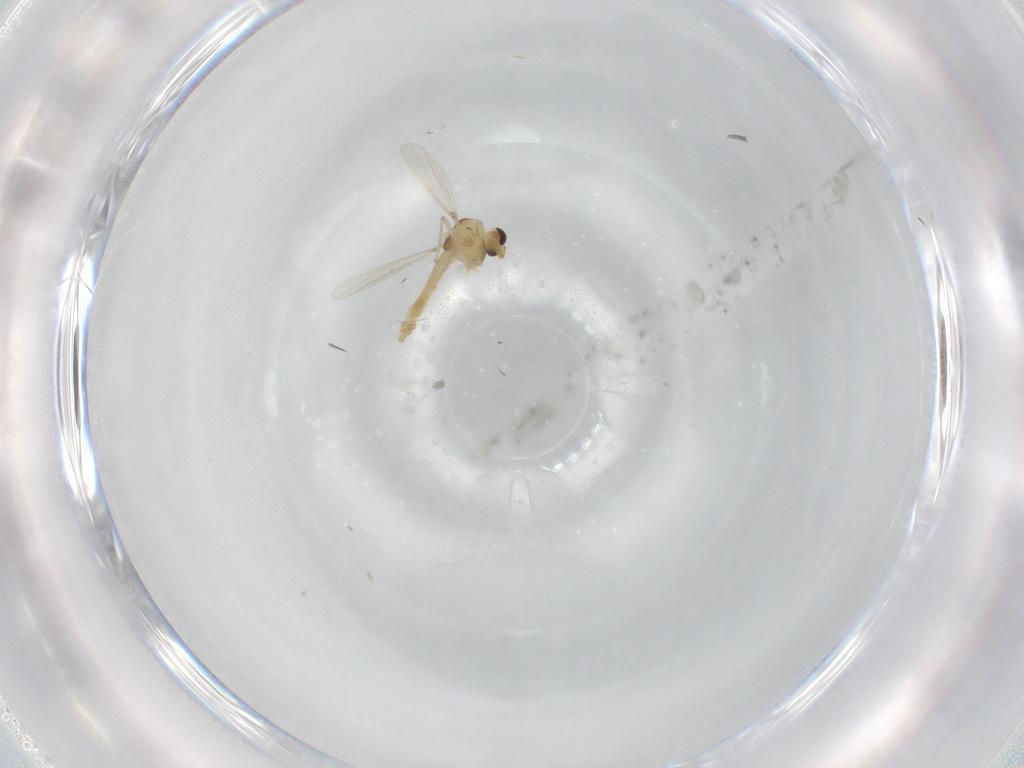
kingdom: Animalia
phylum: Arthropoda
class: Insecta
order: Diptera
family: Chironomidae
